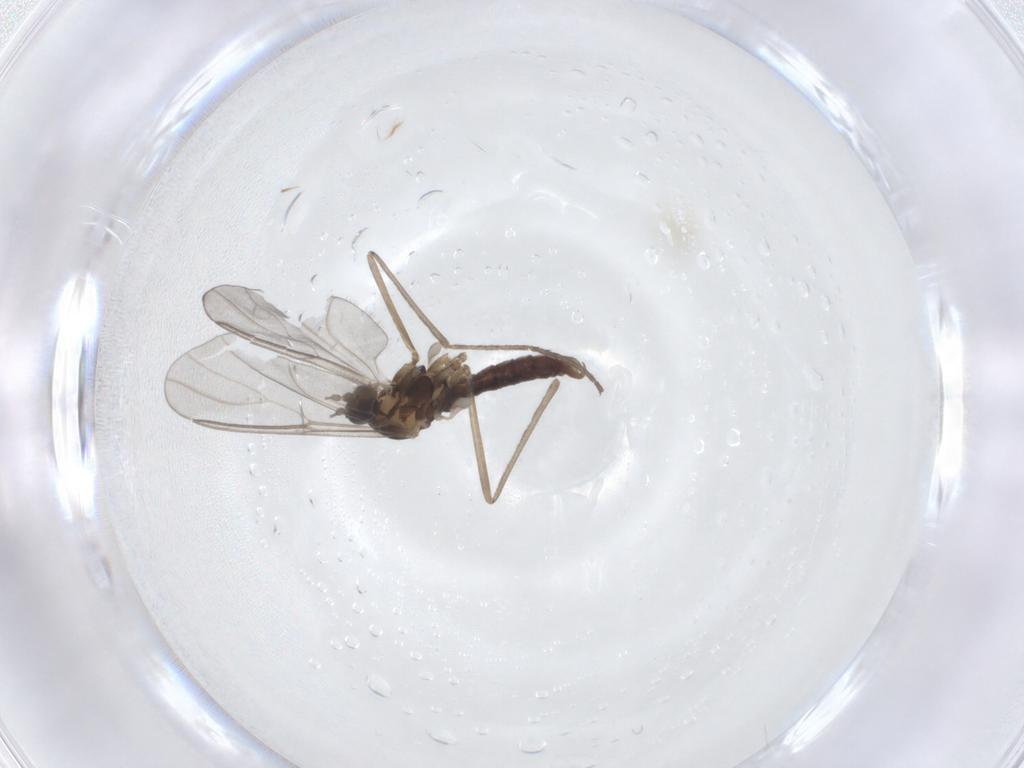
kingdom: Animalia
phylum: Arthropoda
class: Insecta
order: Diptera
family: Cecidomyiidae
